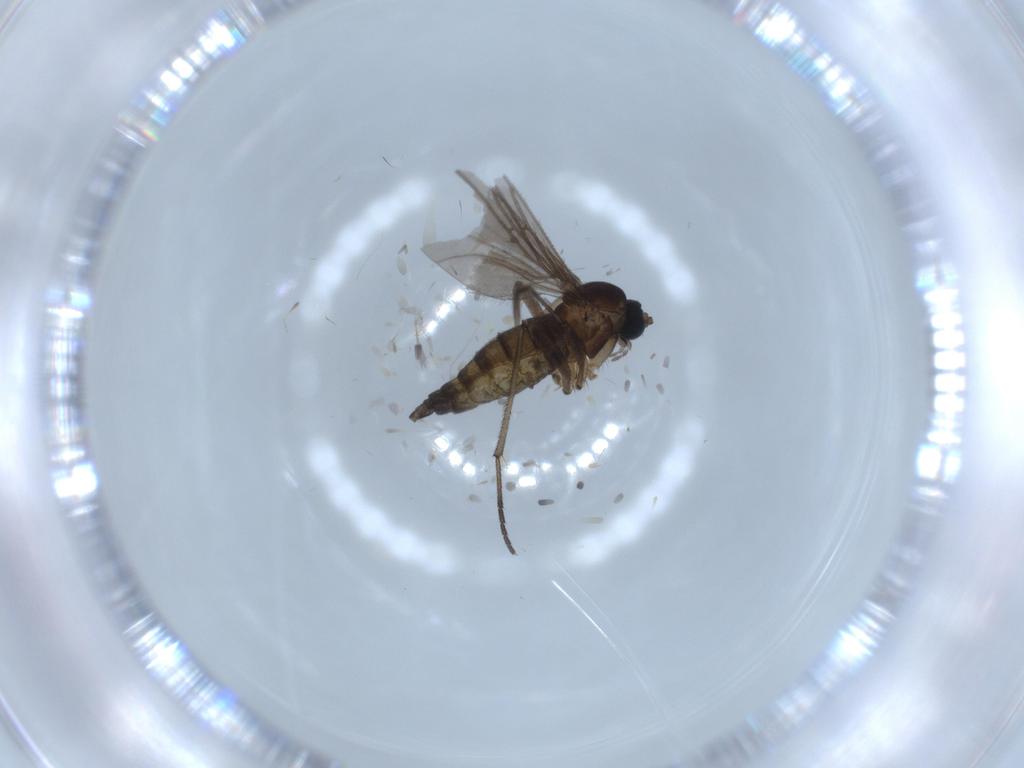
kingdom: Animalia
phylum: Arthropoda
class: Insecta
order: Diptera
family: Sciaridae
